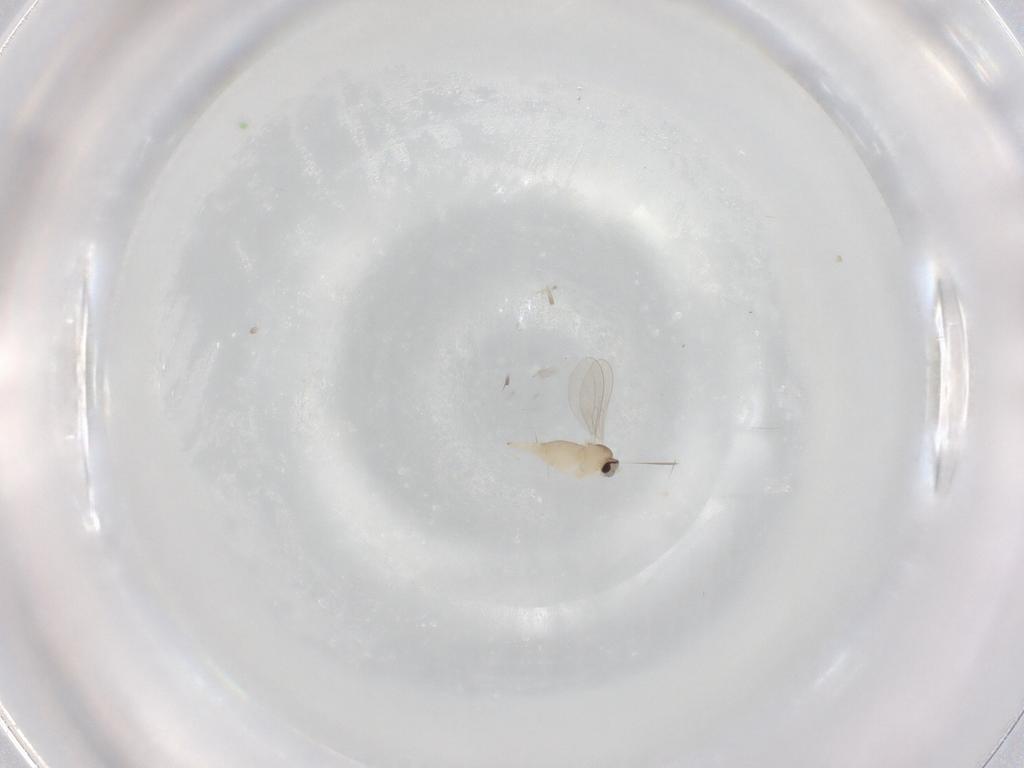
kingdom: Animalia
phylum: Arthropoda
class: Insecta
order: Diptera
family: Cecidomyiidae
